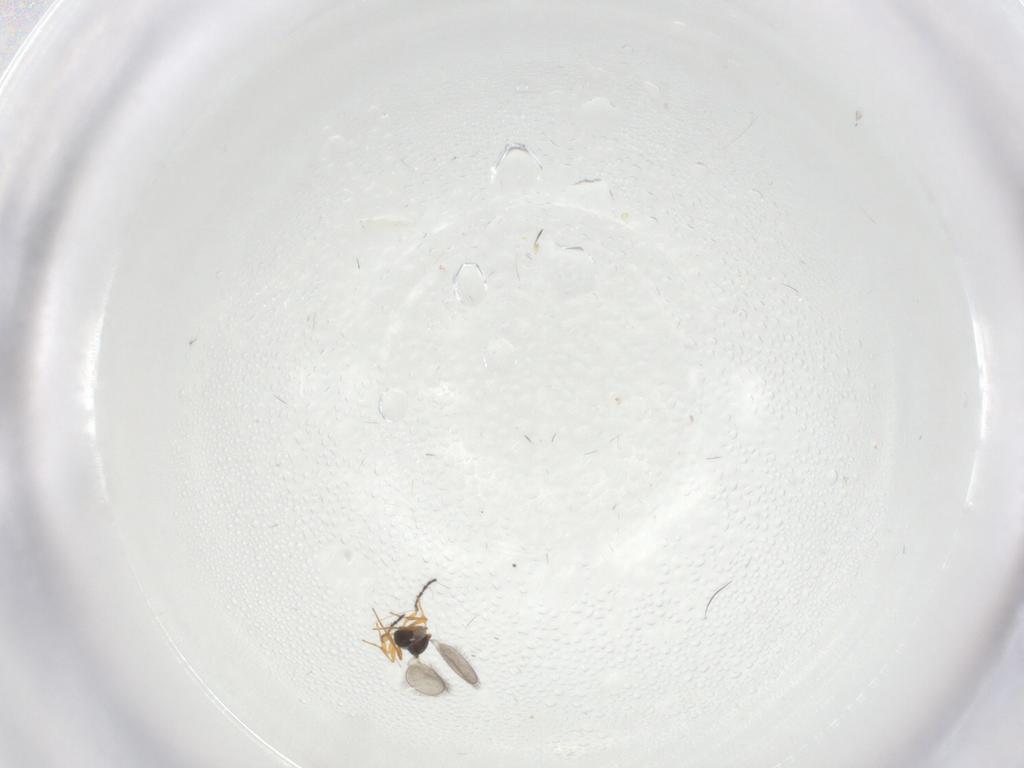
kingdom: Animalia
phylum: Arthropoda
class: Insecta
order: Hymenoptera
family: Platygastridae
